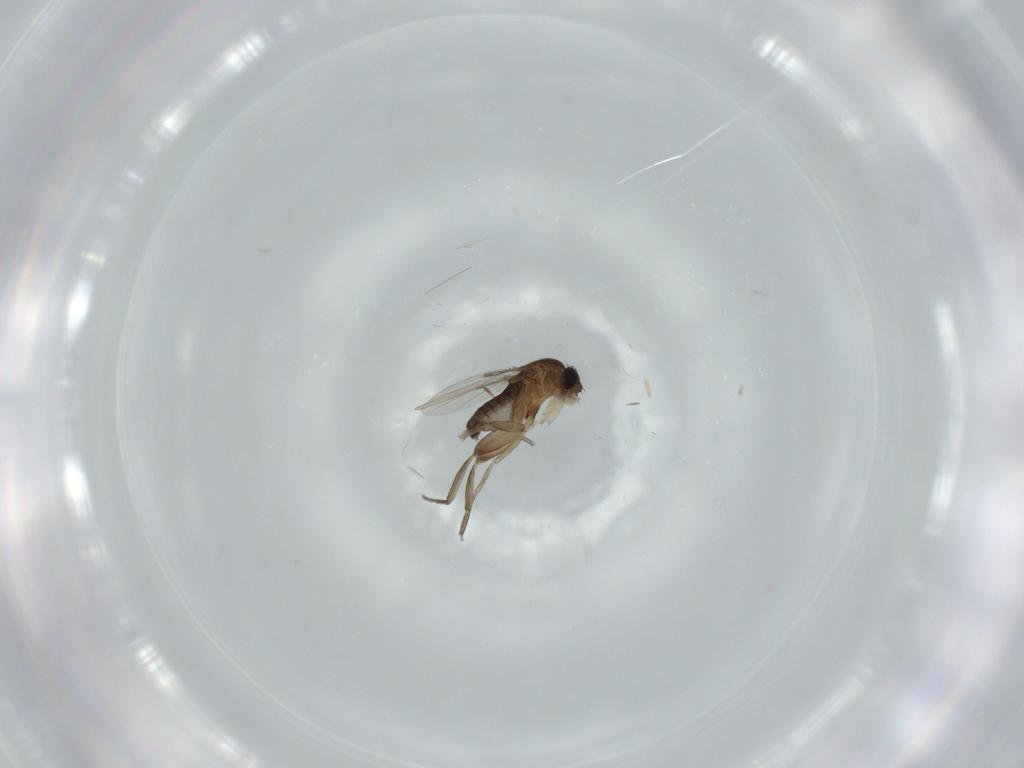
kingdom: Animalia
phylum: Arthropoda
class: Insecta
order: Diptera
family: Phoridae
